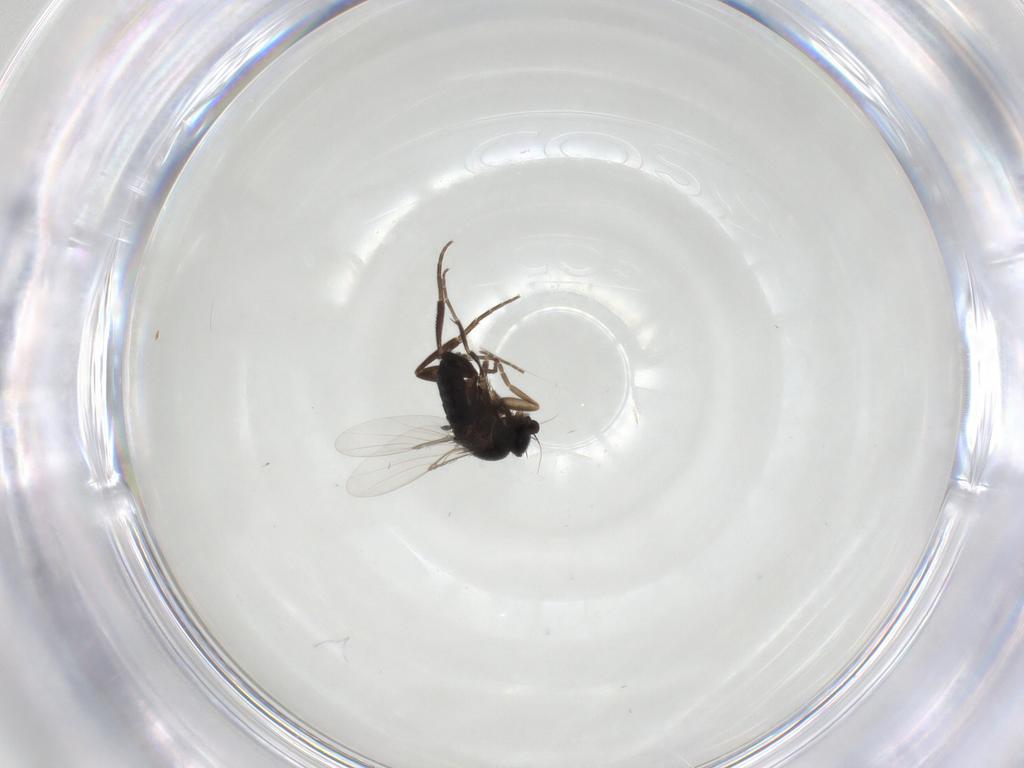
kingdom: Animalia
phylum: Arthropoda
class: Insecta
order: Diptera
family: Phoridae
